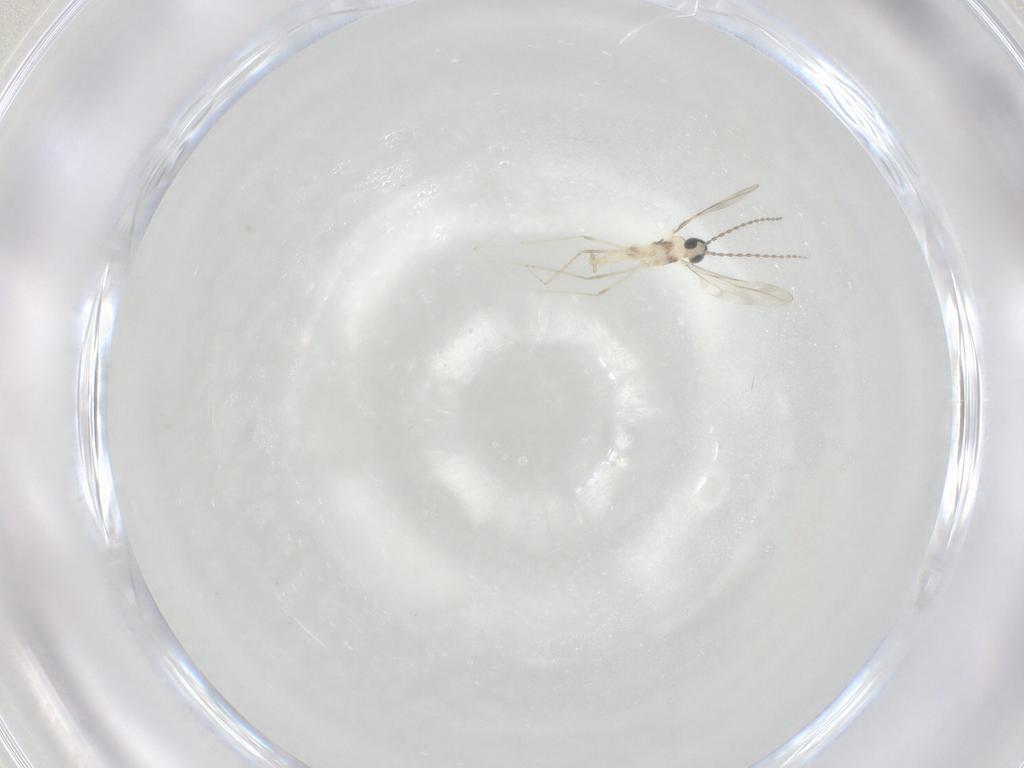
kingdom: Animalia
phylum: Arthropoda
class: Insecta
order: Diptera
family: Cecidomyiidae
